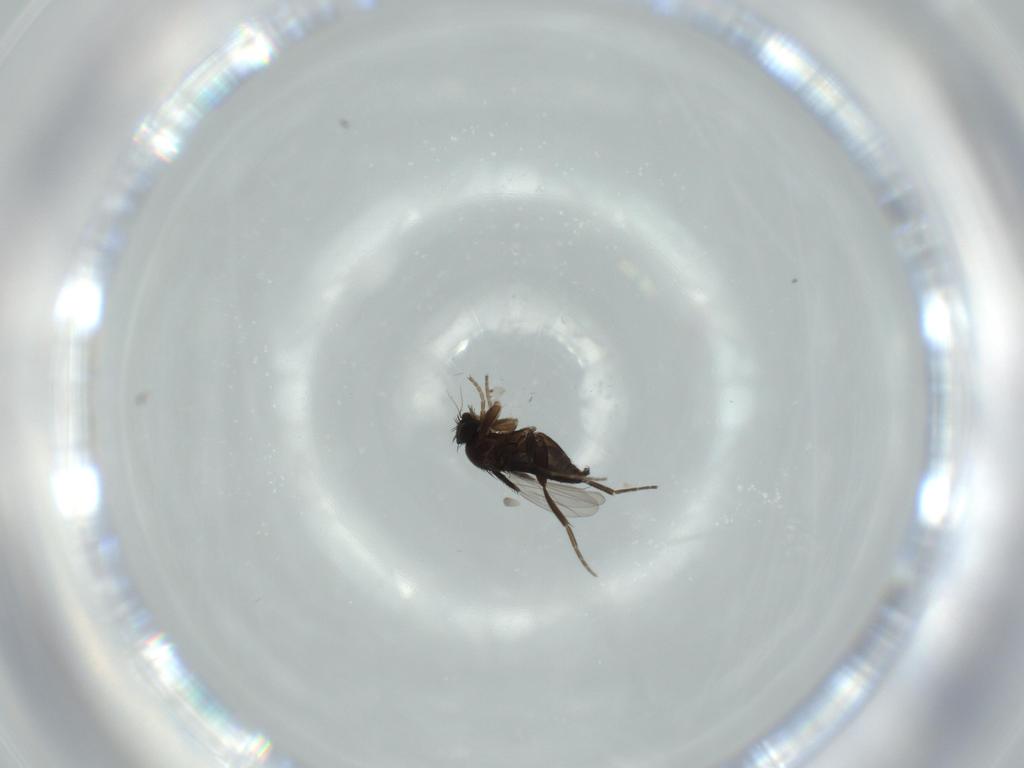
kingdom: Animalia
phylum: Arthropoda
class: Insecta
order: Diptera
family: Phoridae
